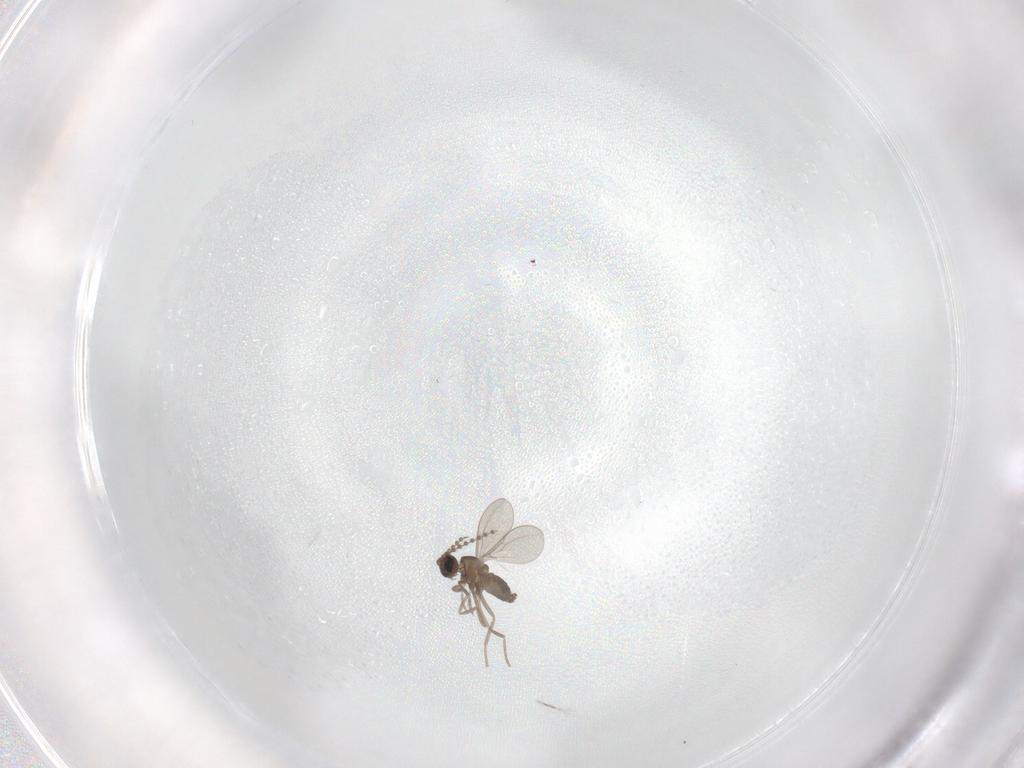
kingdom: Animalia
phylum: Arthropoda
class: Insecta
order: Diptera
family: Cecidomyiidae
